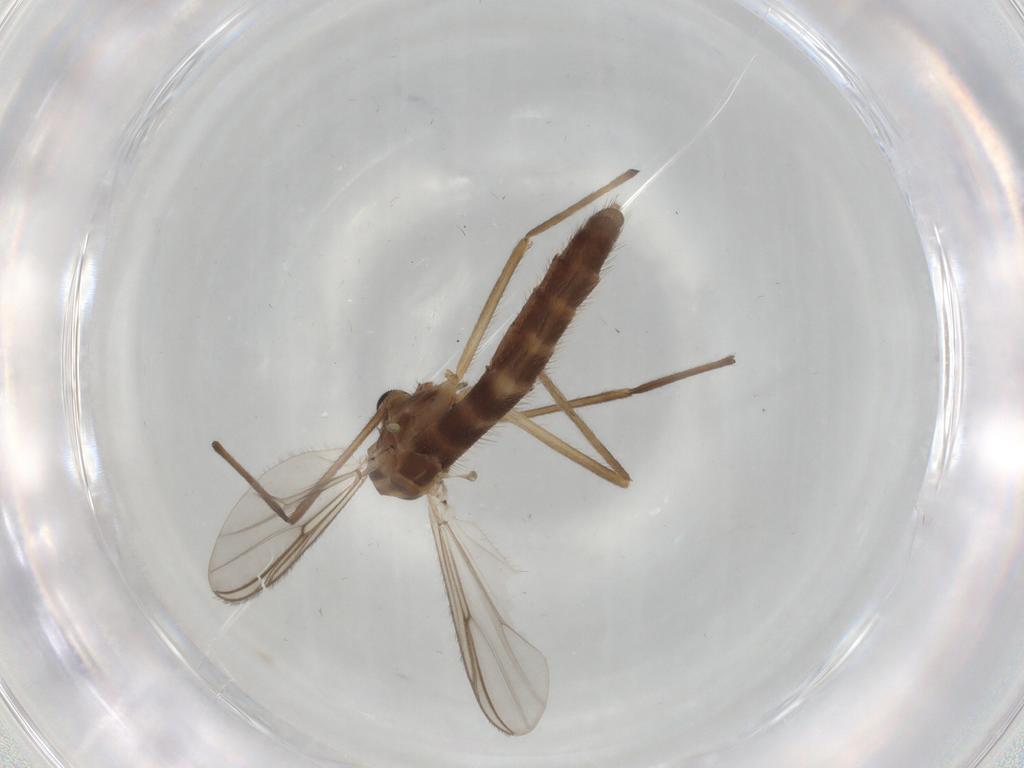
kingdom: Animalia
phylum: Arthropoda
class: Insecta
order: Diptera
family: Chironomidae
